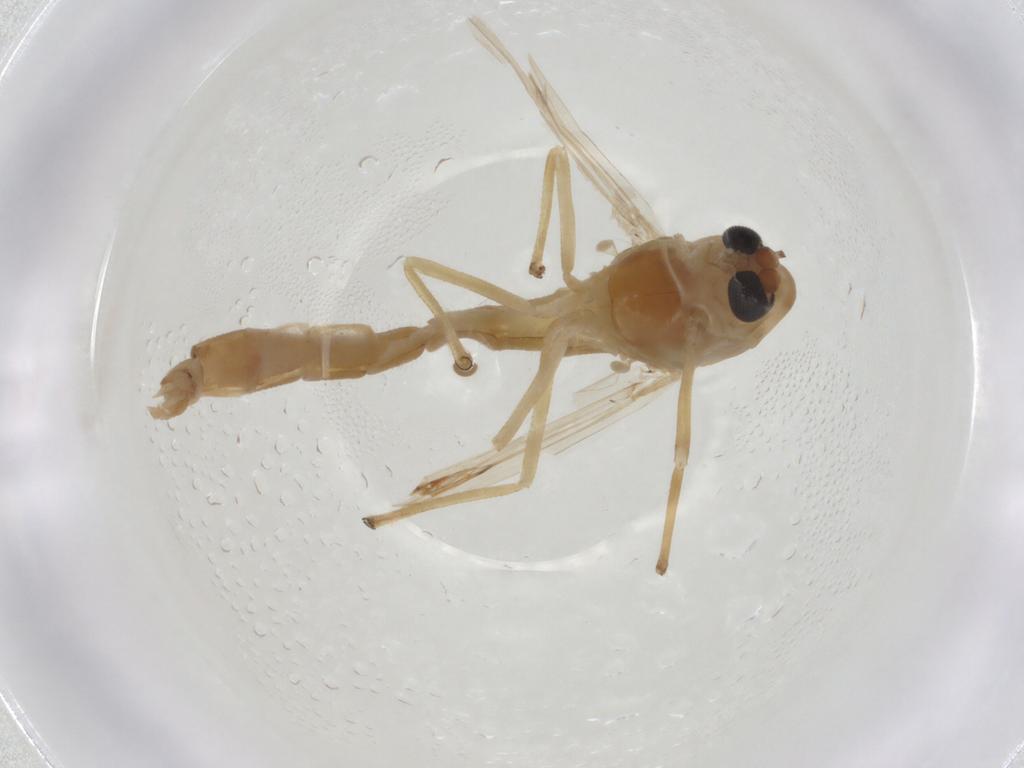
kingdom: Animalia
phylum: Arthropoda
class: Insecta
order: Diptera
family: Chironomidae
